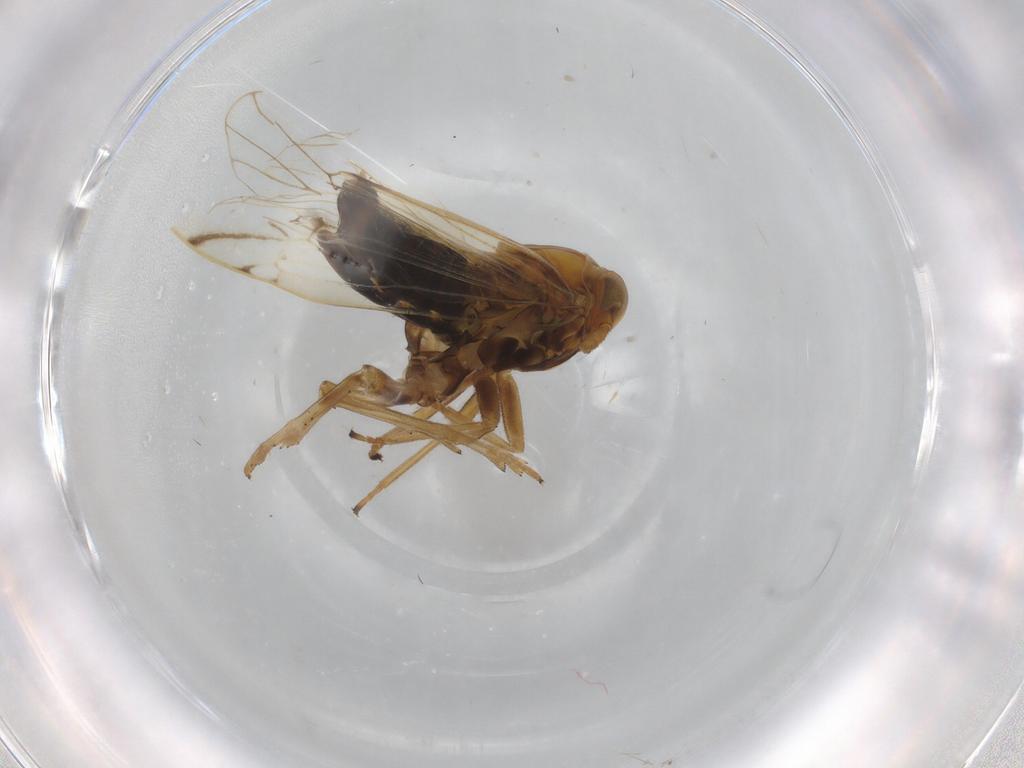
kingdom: Animalia
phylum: Arthropoda
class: Insecta
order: Hemiptera
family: Delphacidae
